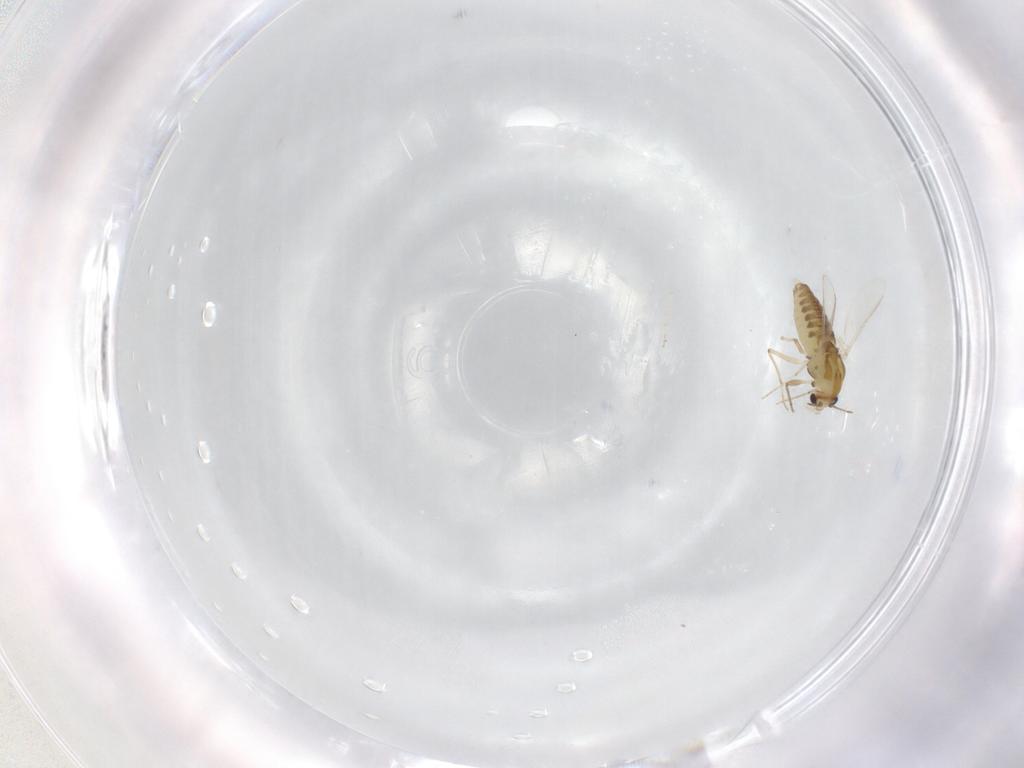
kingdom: Animalia
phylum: Arthropoda
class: Insecta
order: Diptera
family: Chironomidae
